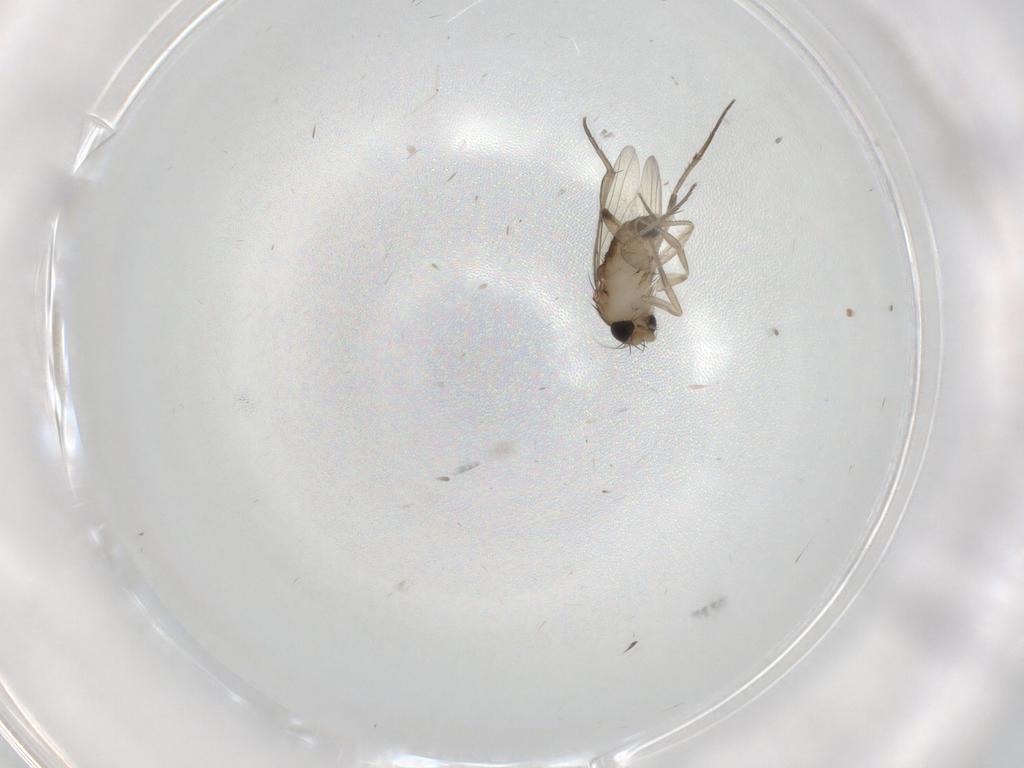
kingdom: Animalia
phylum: Arthropoda
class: Insecta
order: Diptera
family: Phoridae
